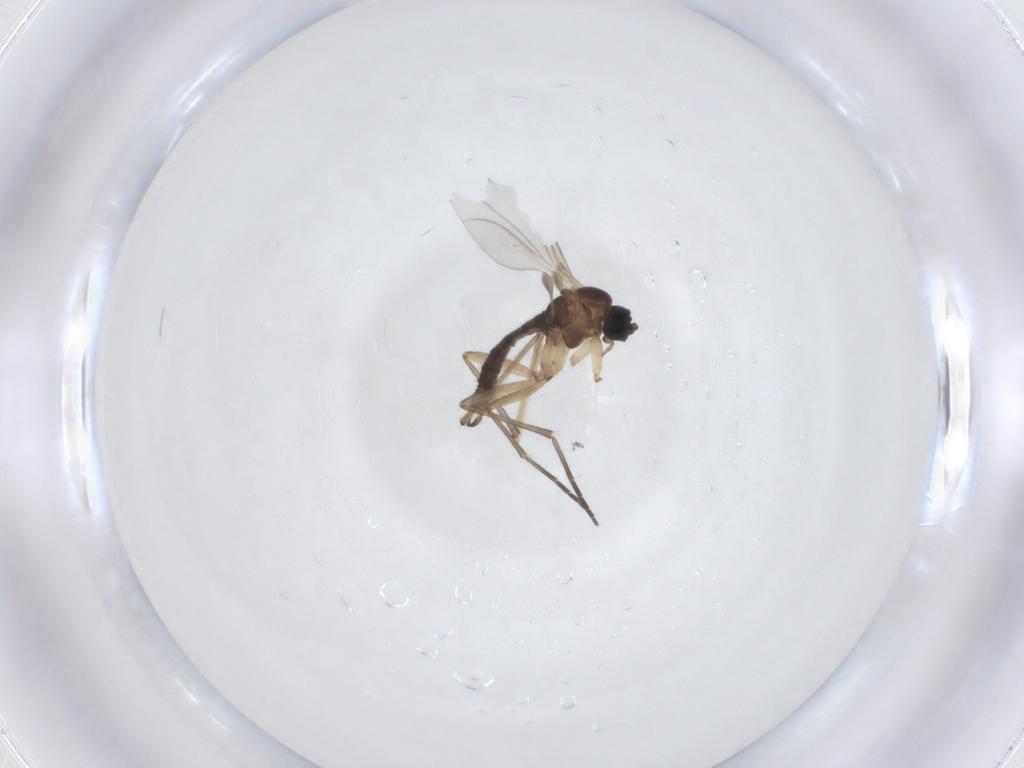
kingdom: Animalia
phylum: Arthropoda
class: Insecta
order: Diptera
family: Sciaridae
